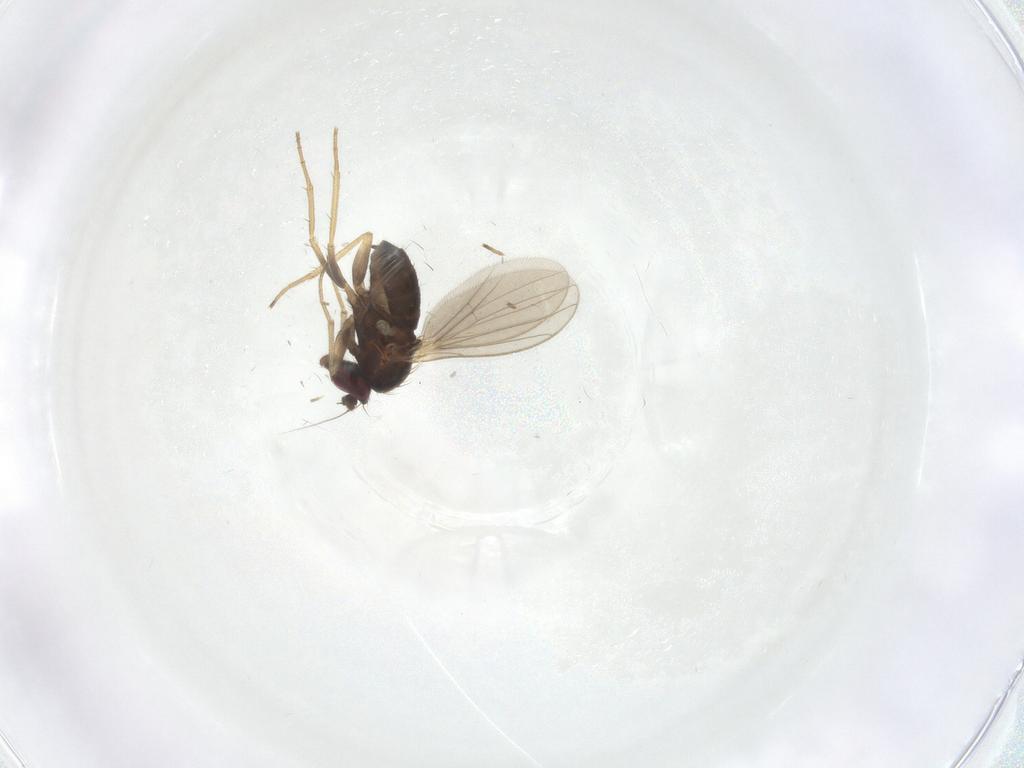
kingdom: Animalia
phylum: Arthropoda
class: Insecta
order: Diptera
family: Dolichopodidae
